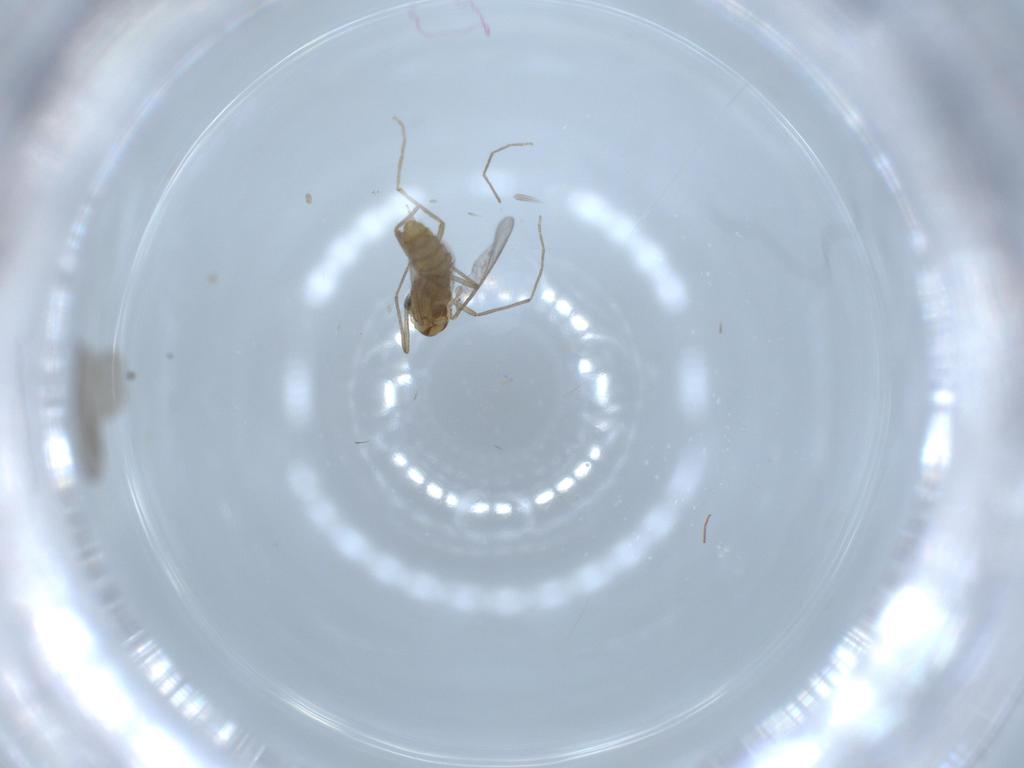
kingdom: Animalia
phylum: Arthropoda
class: Insecta
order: Diptera
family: Chironomidae
